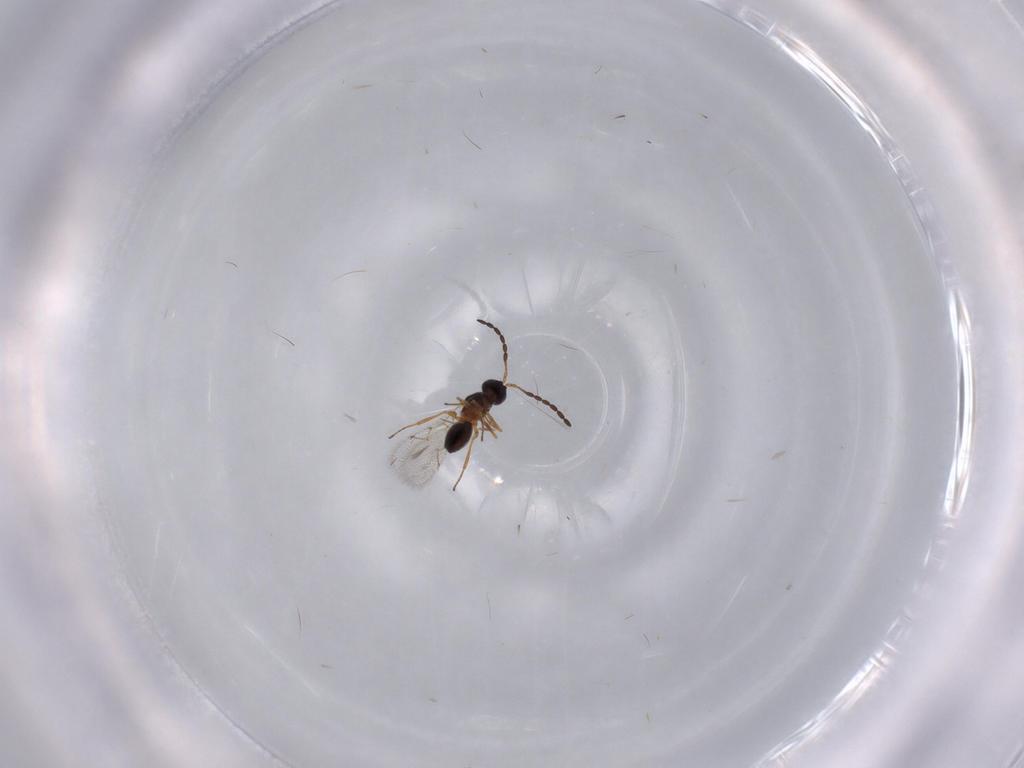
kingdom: Animalia
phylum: Arthropoda
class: Insecta
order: Hymenoptera
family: Figitidae
